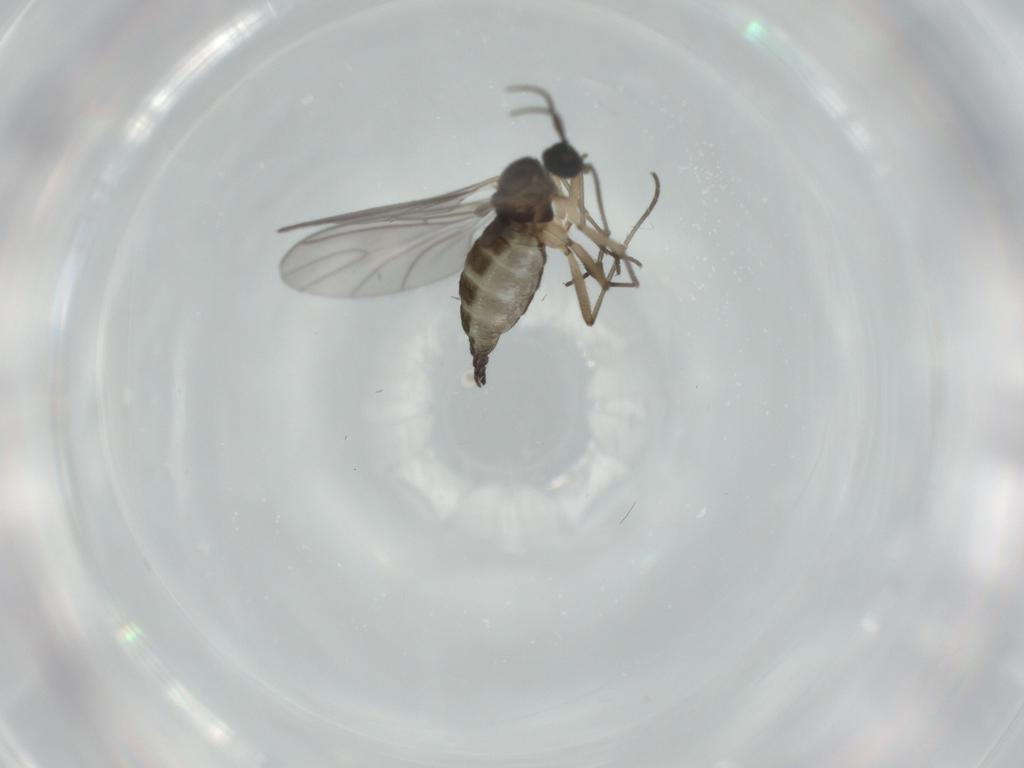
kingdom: Animalia
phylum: Arthropoda
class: Insecta
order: Diptera
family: Sciaridae
